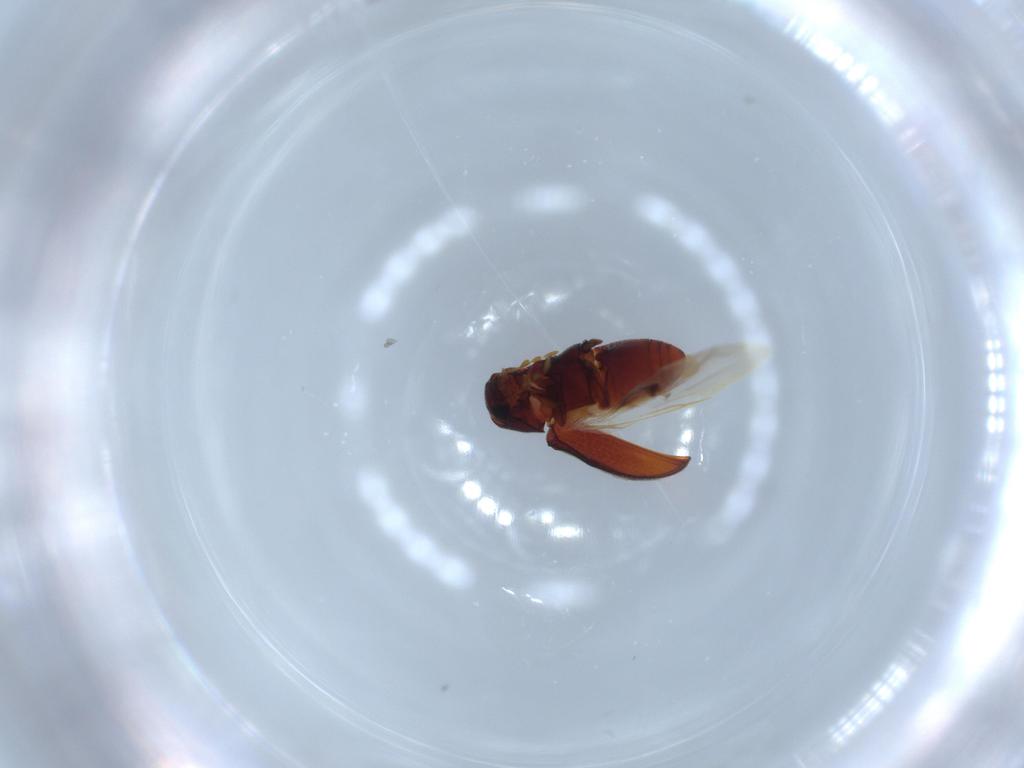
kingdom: Animalia
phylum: Arthropoda
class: Insecta
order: Coleoptera
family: Ptinidae
